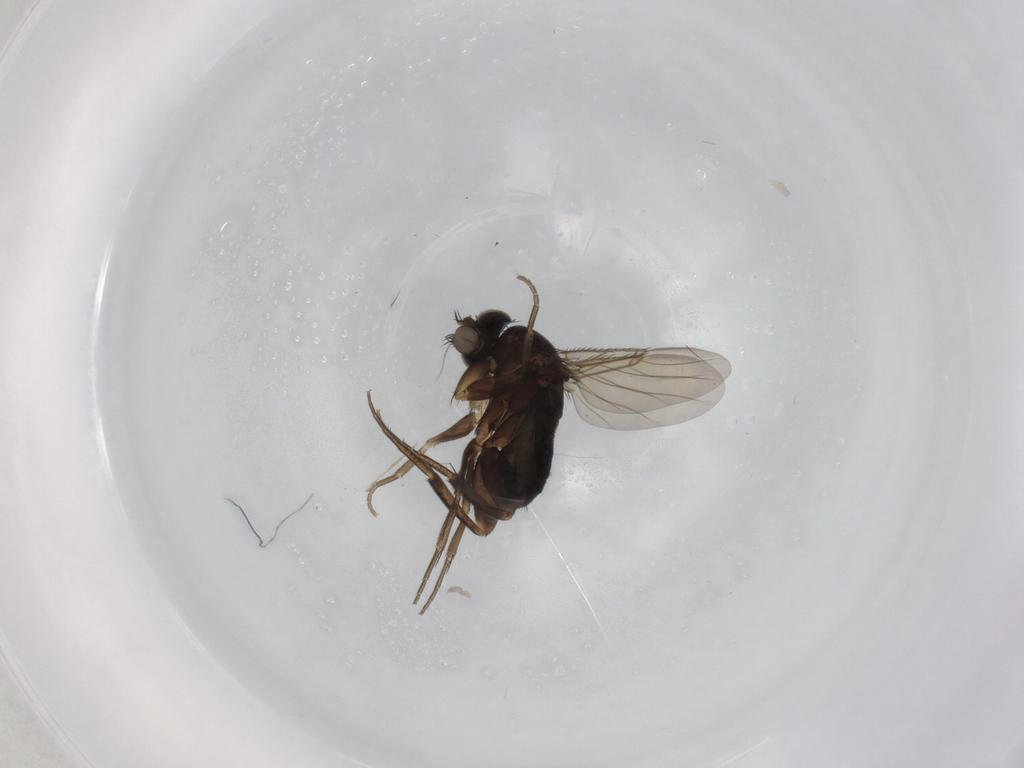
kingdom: Animalia
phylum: Arthropoda
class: Insecta
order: Diptera
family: Phoridae
